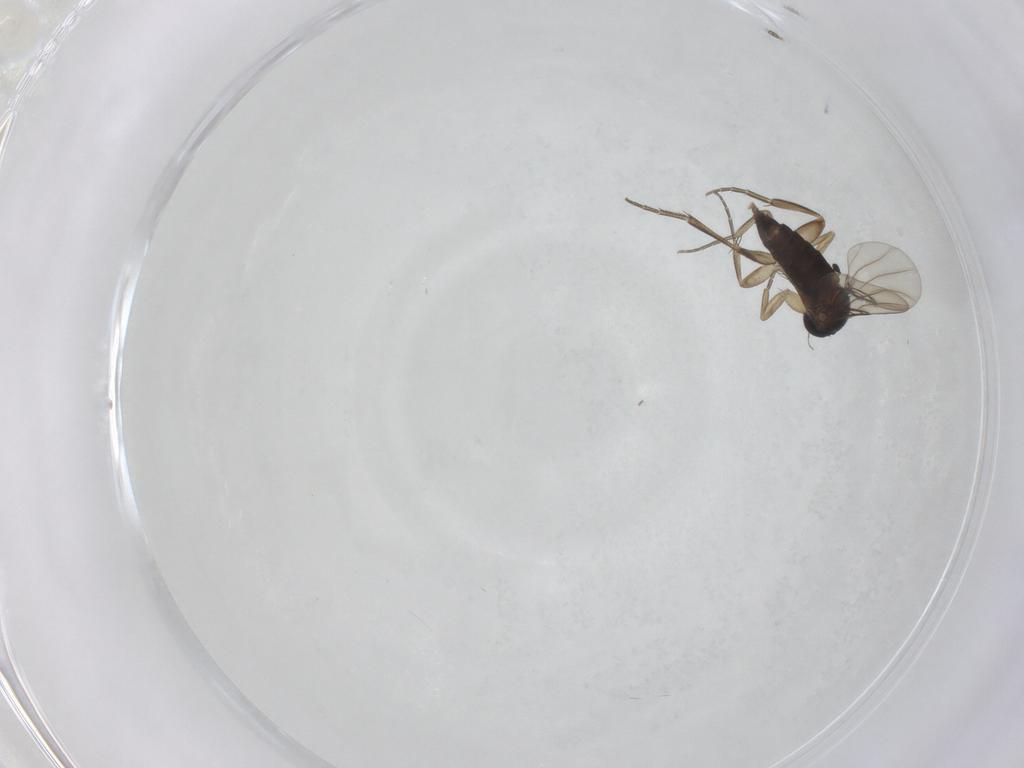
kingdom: Animalia
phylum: Arthropoda
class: Insecta
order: Diptera
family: Phoridae
